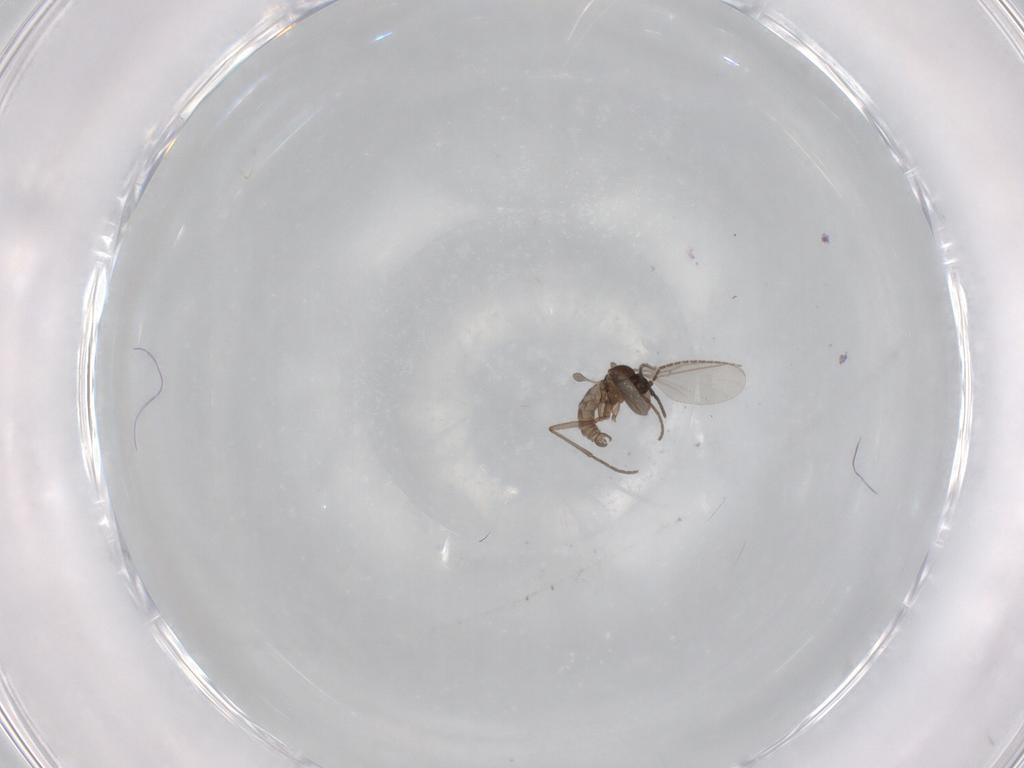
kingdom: Animalia
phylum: Arthropoda
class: Insecta
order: Diptera
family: Sciaridae
